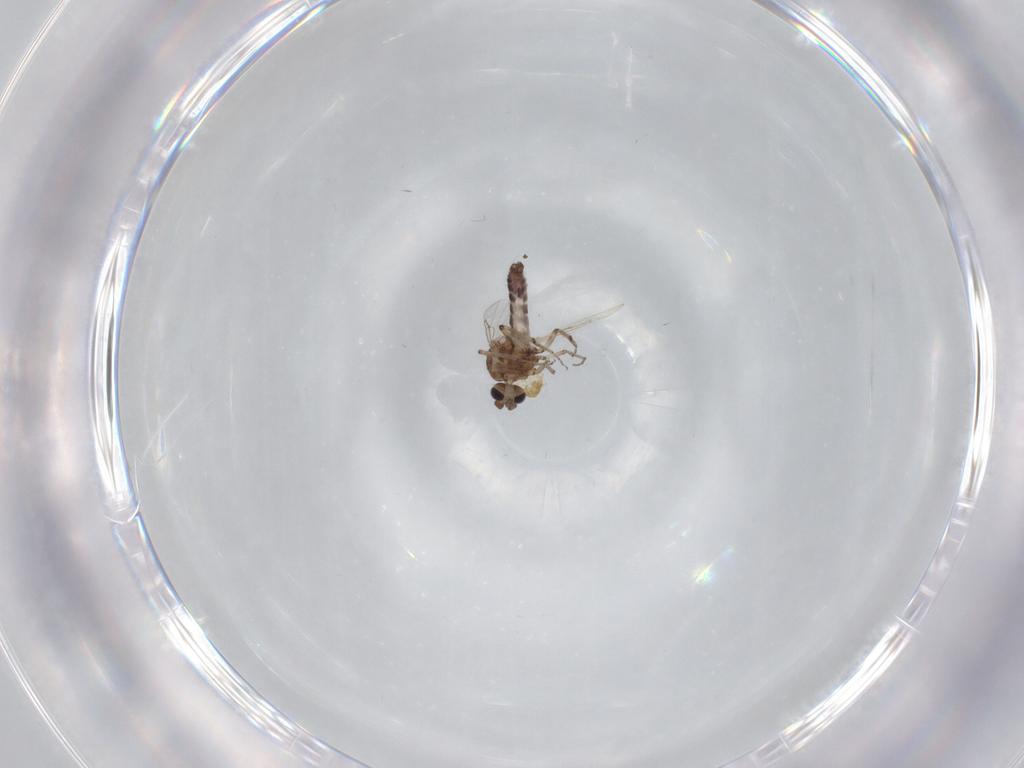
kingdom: Animalia
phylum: Arthropoda
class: Insecta
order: Diptera
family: Ceratopogonidae
